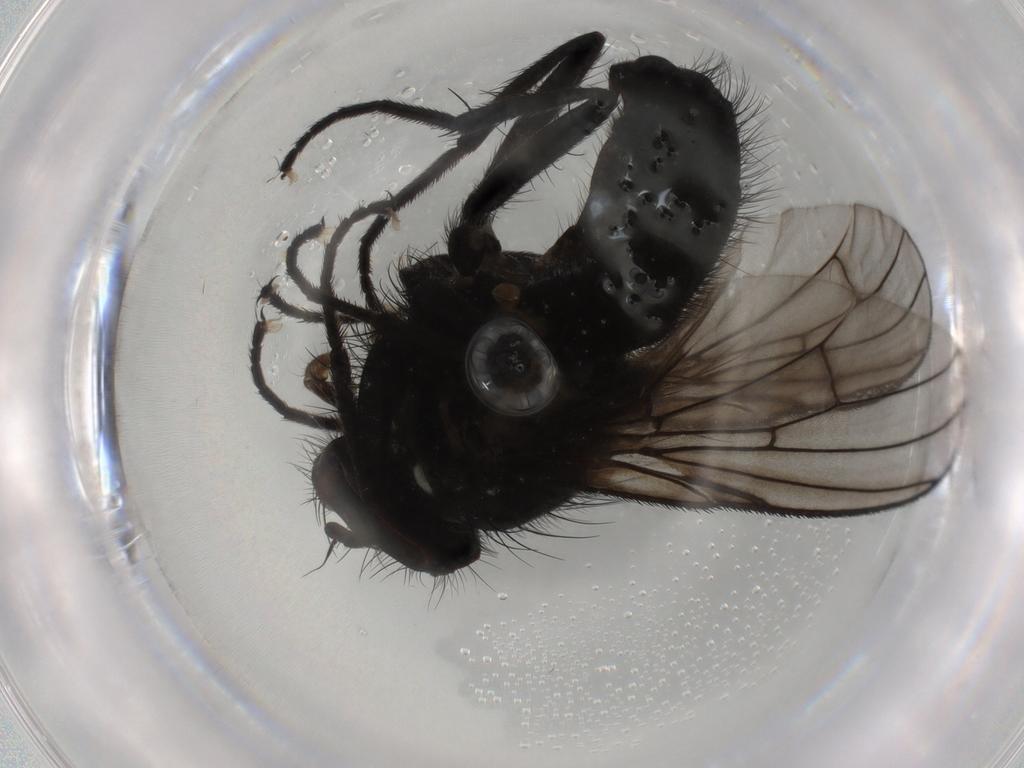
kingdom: Animalia
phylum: Arthropoda
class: Insecta
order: Diptera
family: Muscidae
